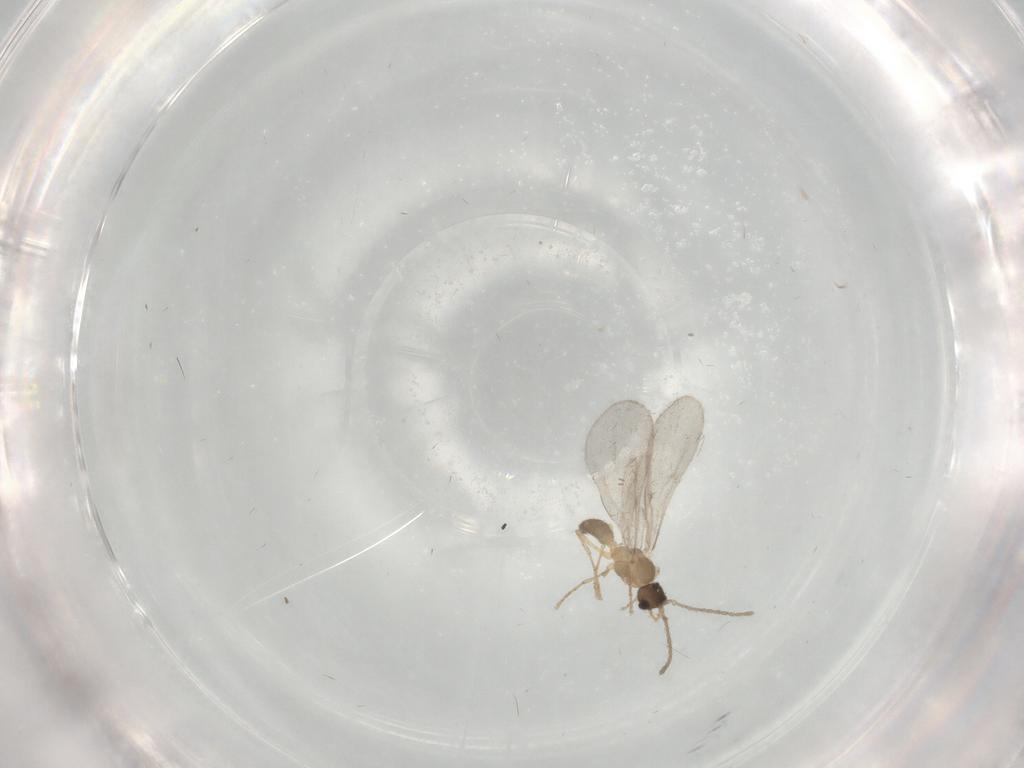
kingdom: Animalia
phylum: Arthropoda
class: Insecta
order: Hymenoptera
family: Formicidae
